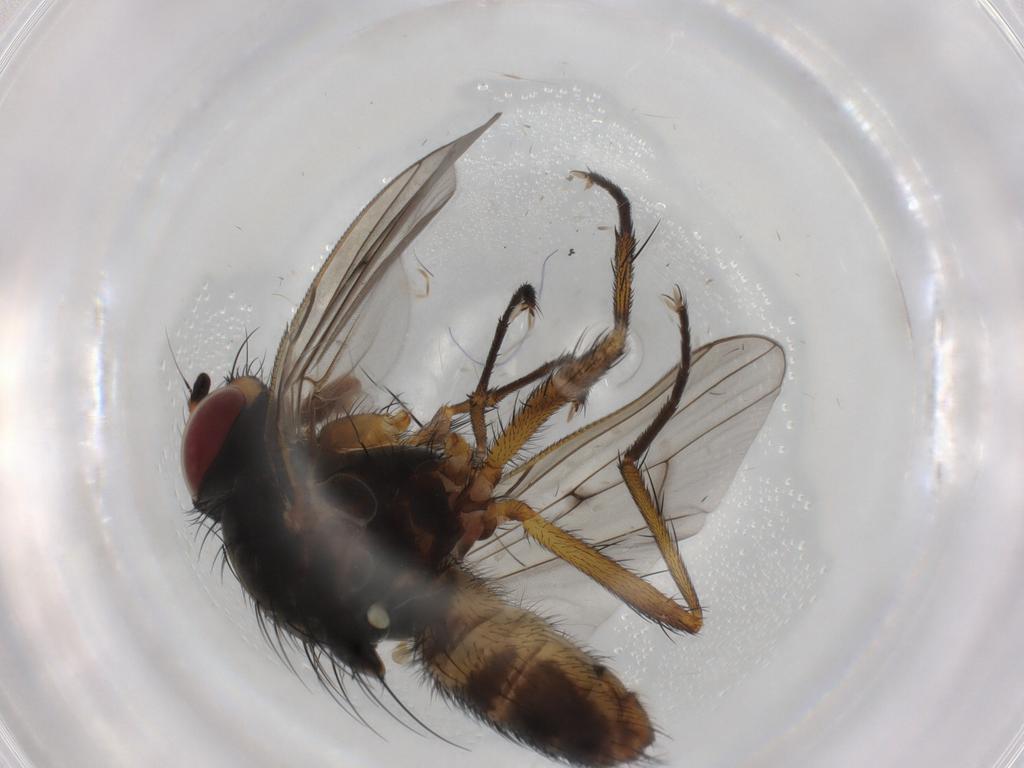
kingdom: Animalia
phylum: Arthropoda
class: Insecta
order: Diptera
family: Anthomyiidae
